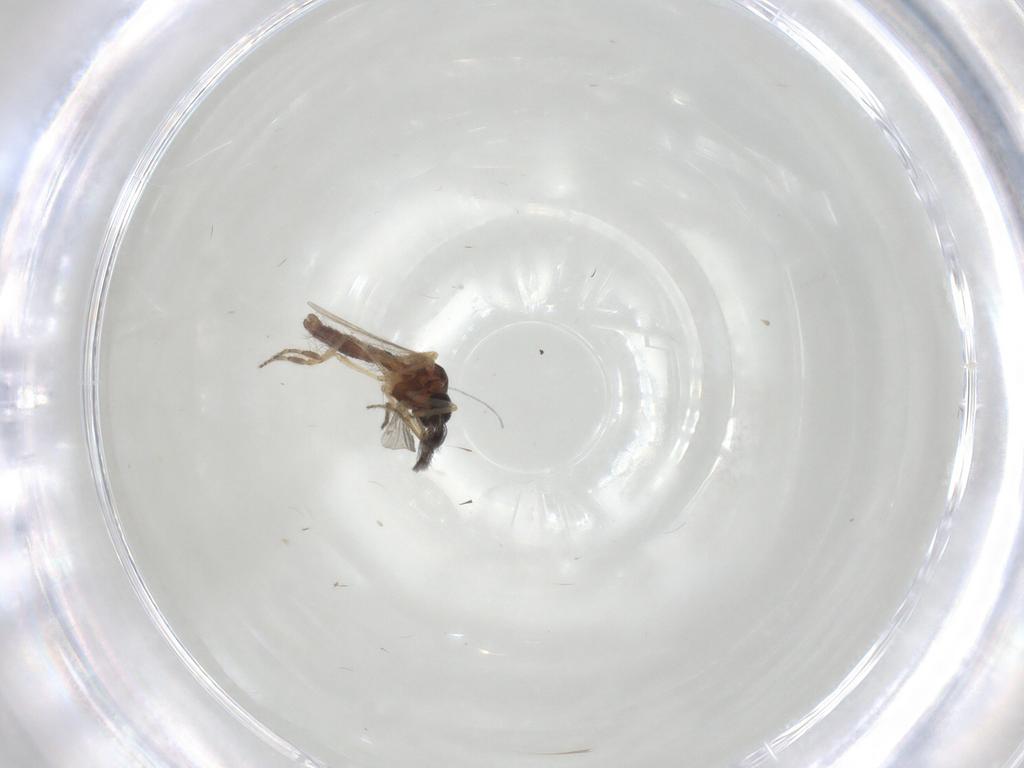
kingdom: Animalia
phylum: Arthropoda
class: Insecta
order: Diptera
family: Ceratopogonidae
